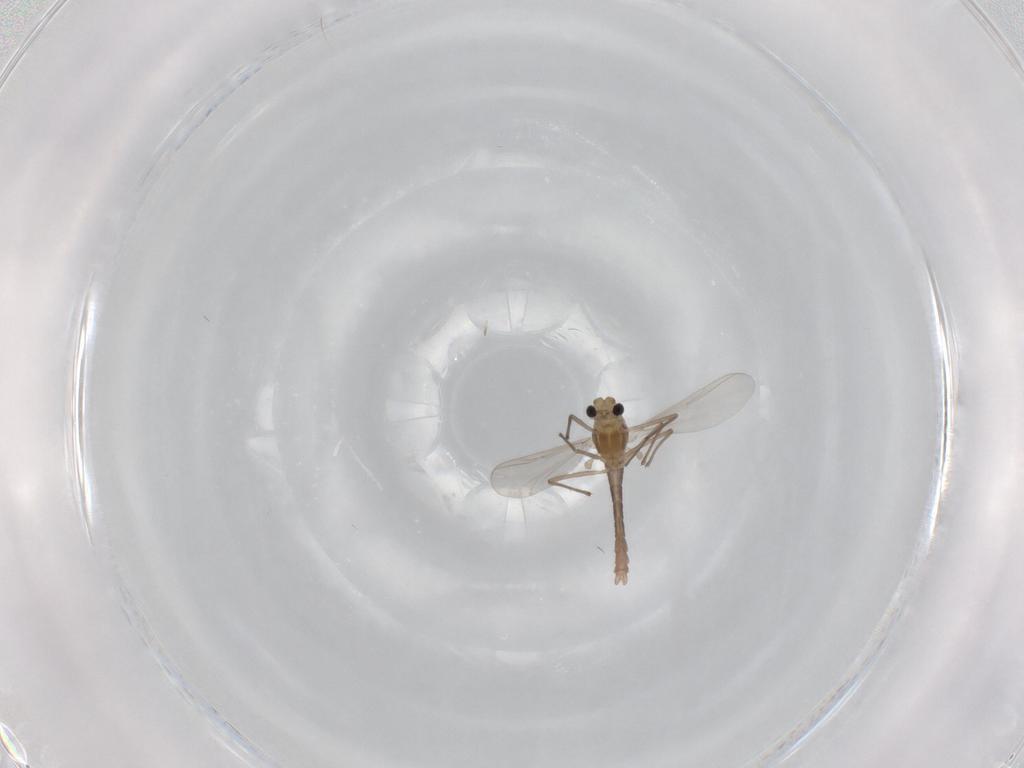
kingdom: Animalia
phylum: Arthropoda
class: Insecta
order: Diptera
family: Chironomidae
